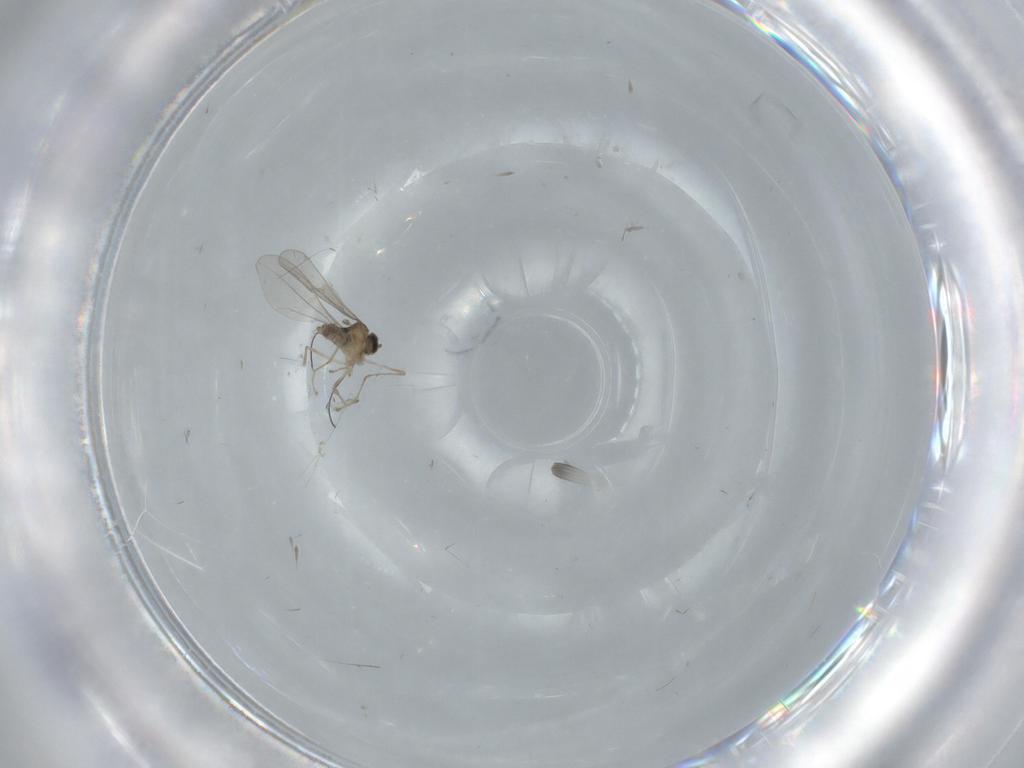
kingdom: Animalia
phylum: Arthropoda
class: Insecta
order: Diptera
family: Cecidomyiidae
